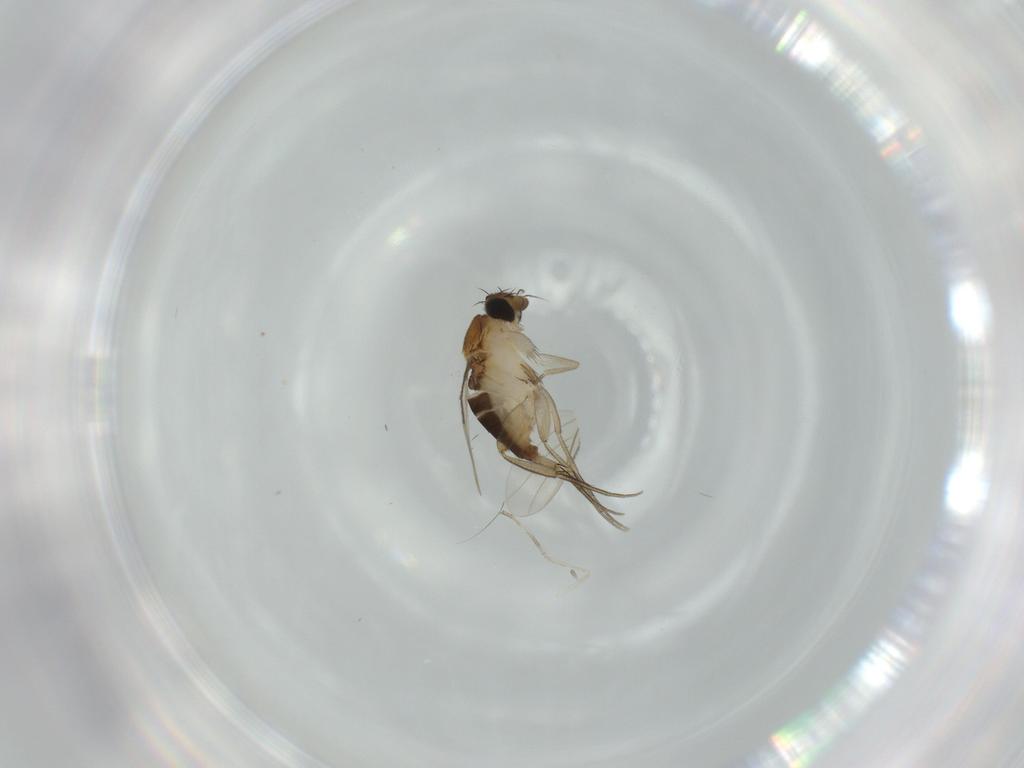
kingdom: Animalia
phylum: Arthropoda
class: Insecta
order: Diptera
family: Phoridae
